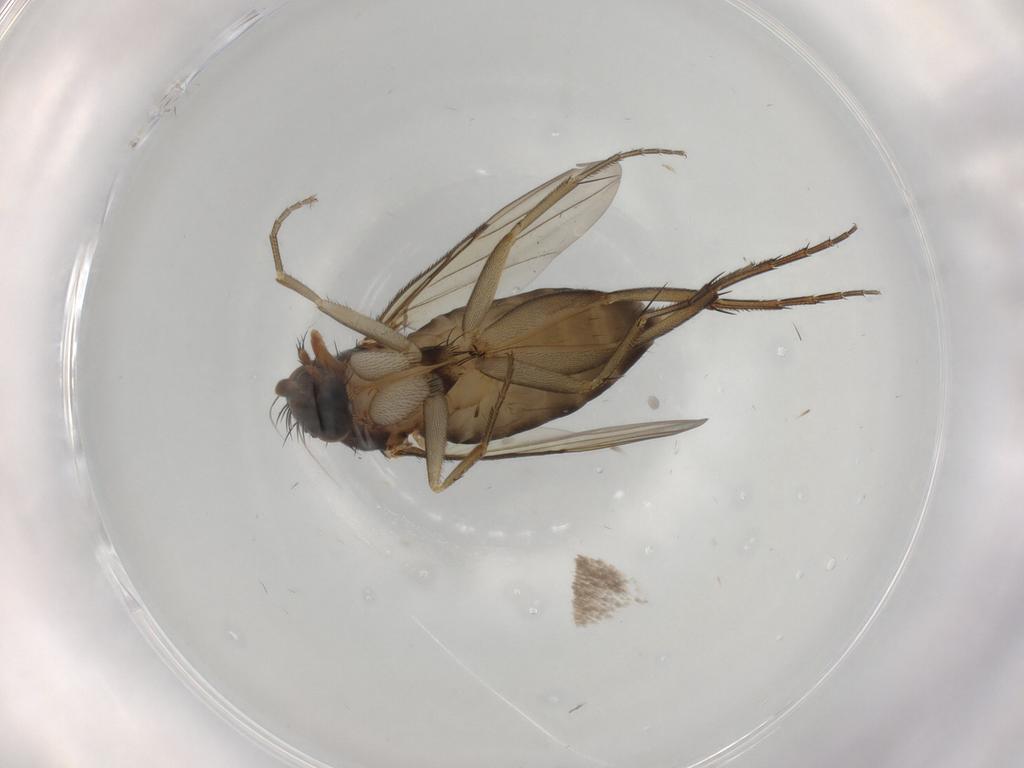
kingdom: Animalia
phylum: Arthropoda
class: Insecta
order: Diptera
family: Phoridae
